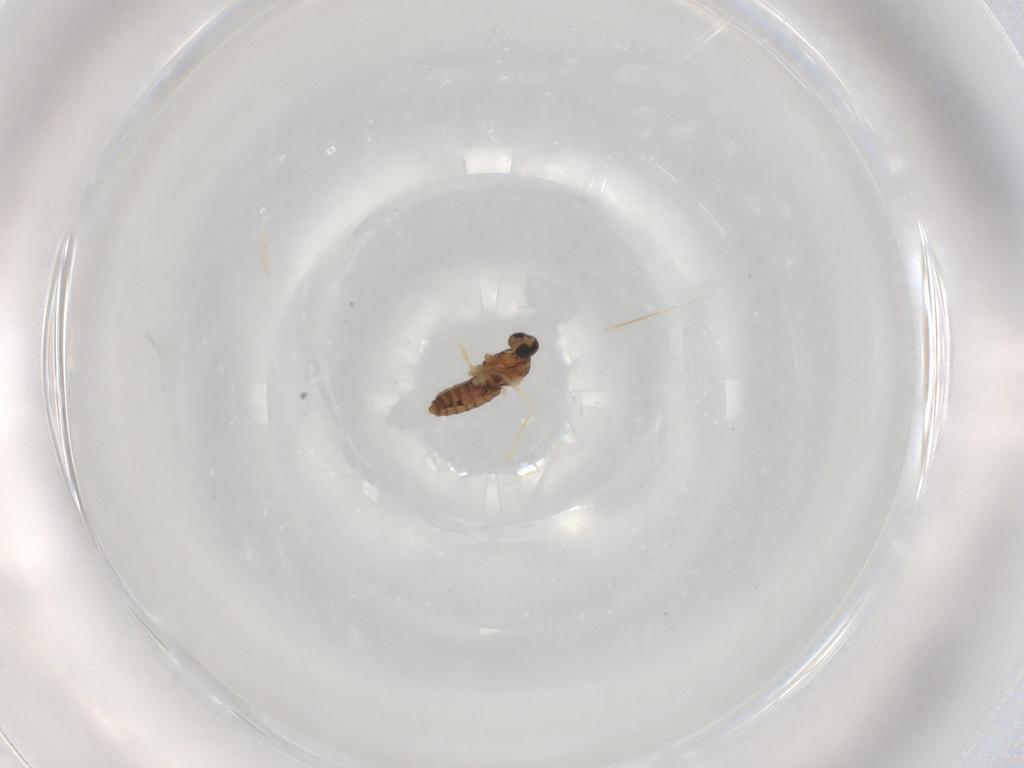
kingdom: Animalia
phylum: Arthropoda
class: Insecta
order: Diptera
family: Cecidomyiidae
